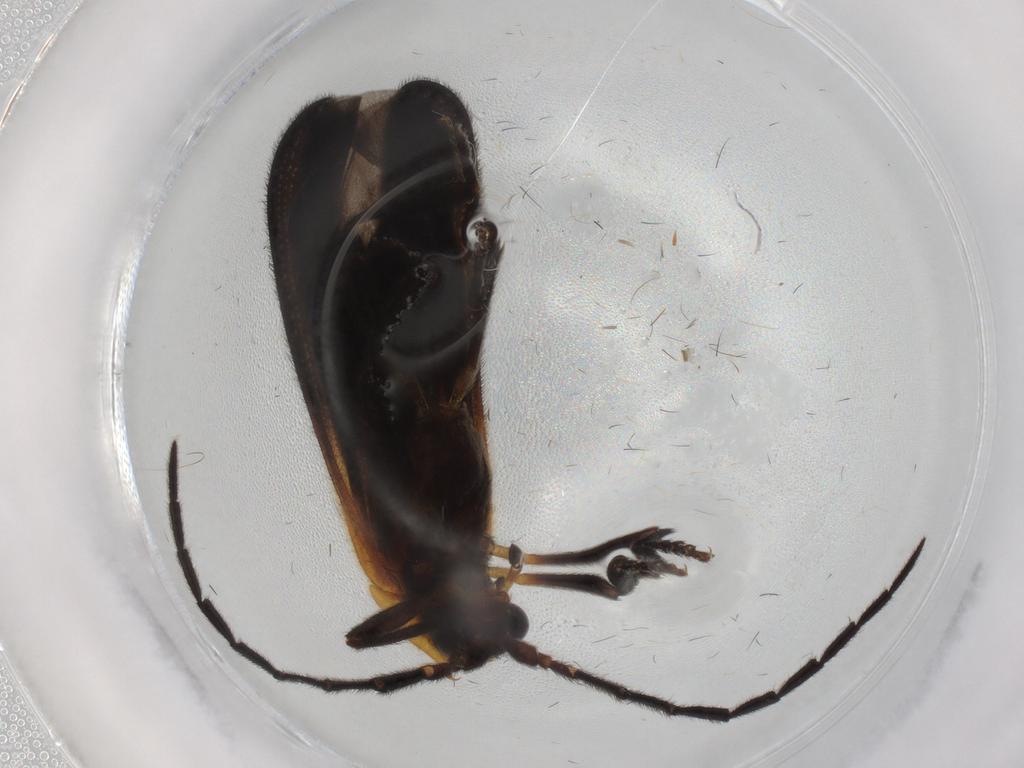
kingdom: Animalia
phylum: Arthropoda
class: Insecta
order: Coleoptera
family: Lycidae
